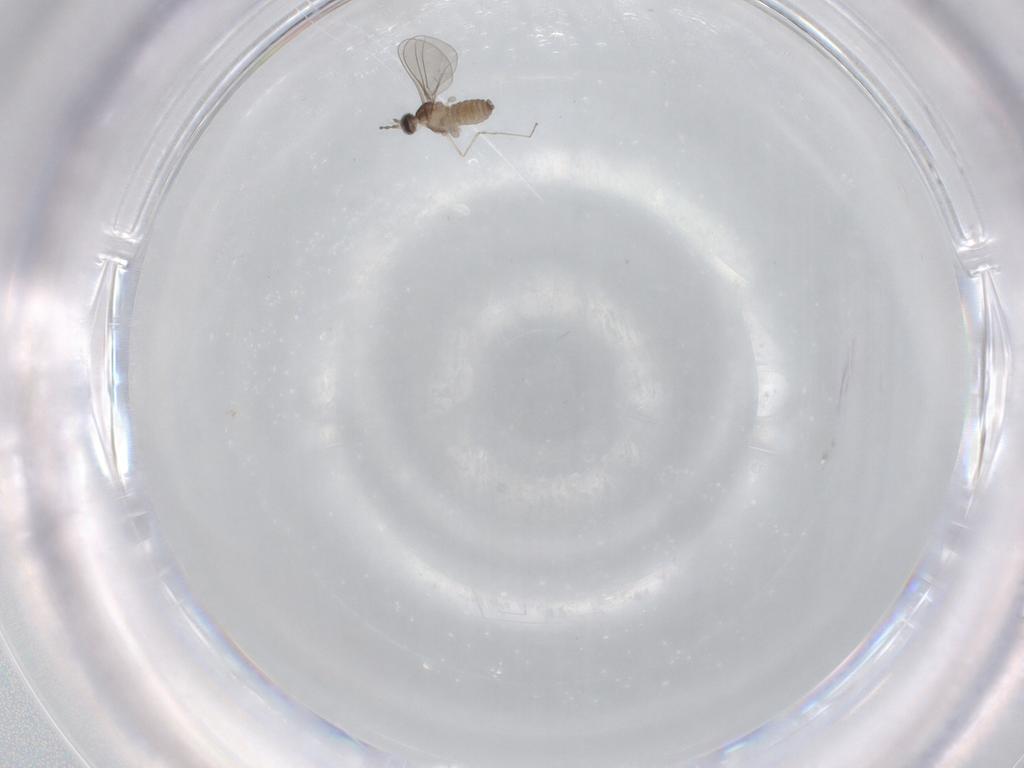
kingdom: Animalia
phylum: Arthropoda
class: Insecta
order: Diptera
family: Cecidomyiidae
